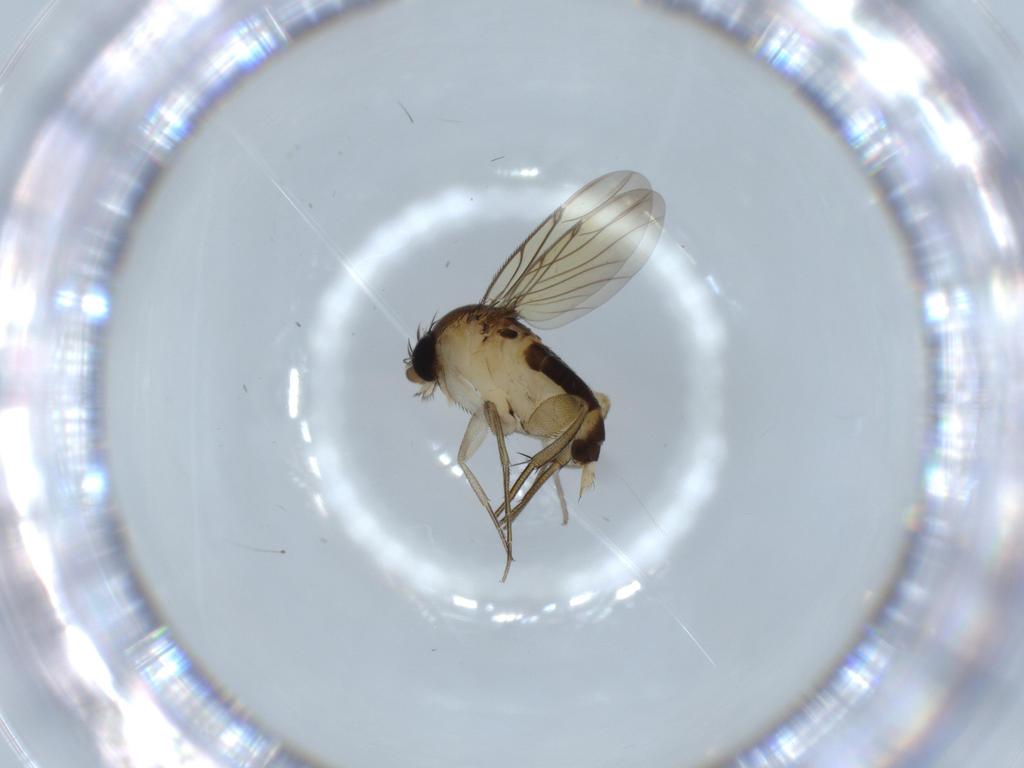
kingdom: Animalia
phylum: Arthropoda
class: Insecta
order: Diptera
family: Phoridae
